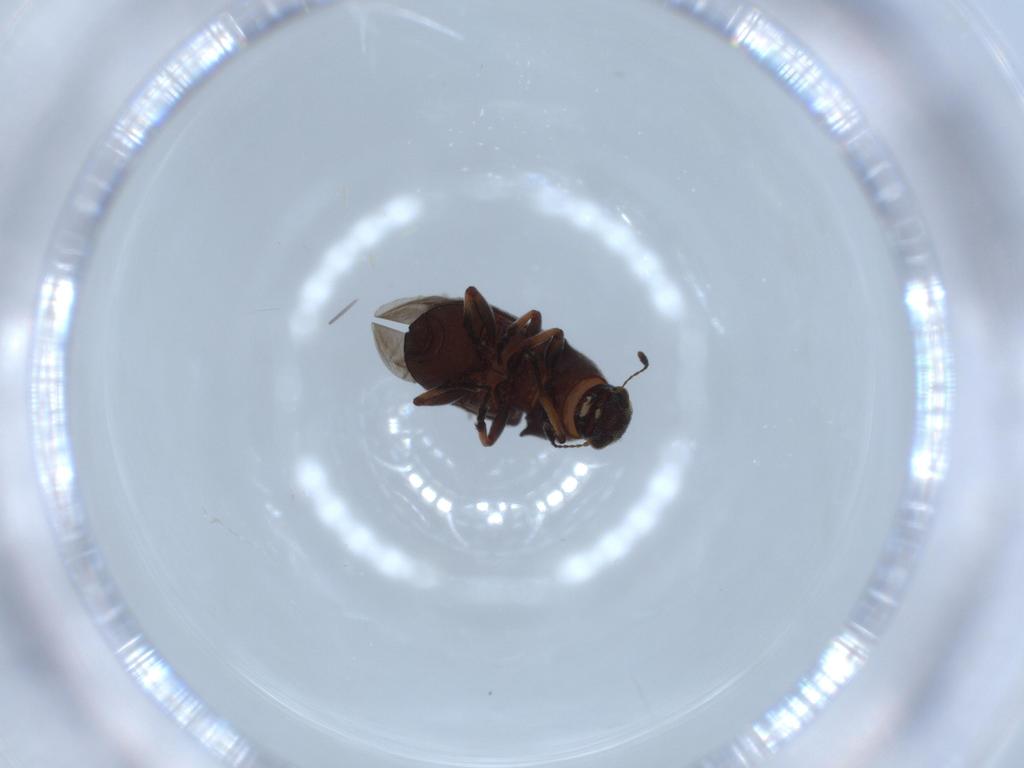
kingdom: Animalia
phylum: Arthropoda
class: Insecta
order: Coleoptera
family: Anthribidae
